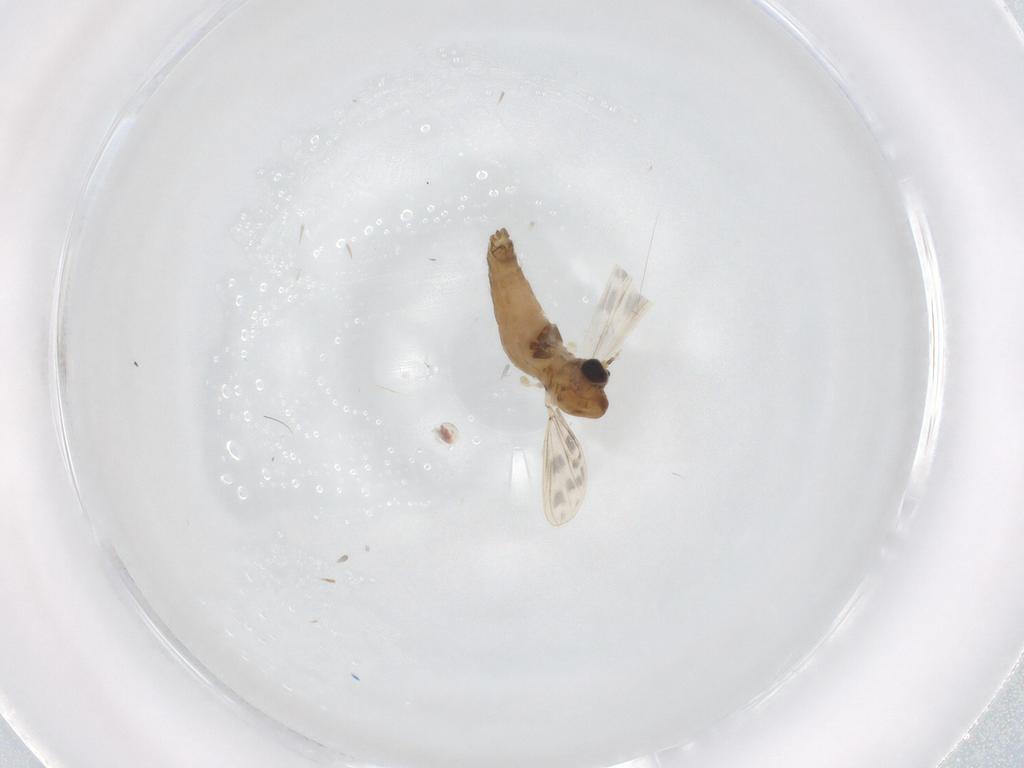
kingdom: Animalia
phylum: Arthropoda
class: Insecta
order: Diptera
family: Chironomidae
